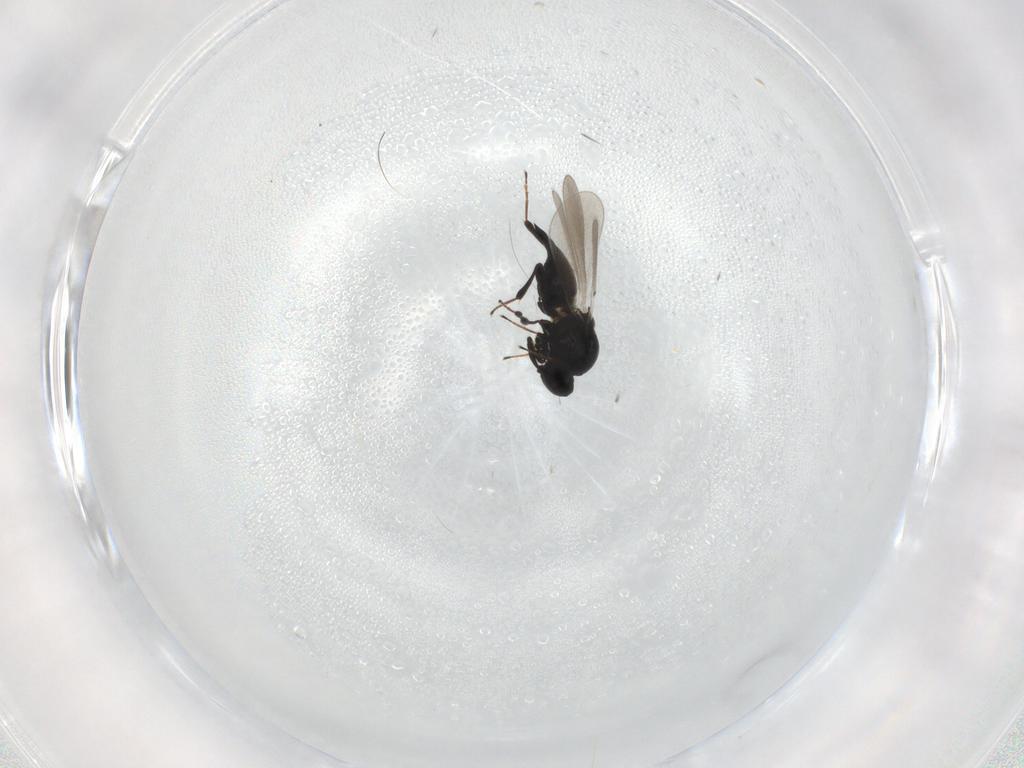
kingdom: Animalia
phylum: Arthropoda
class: Insecta
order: Hymenoptera
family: Platygastridae
